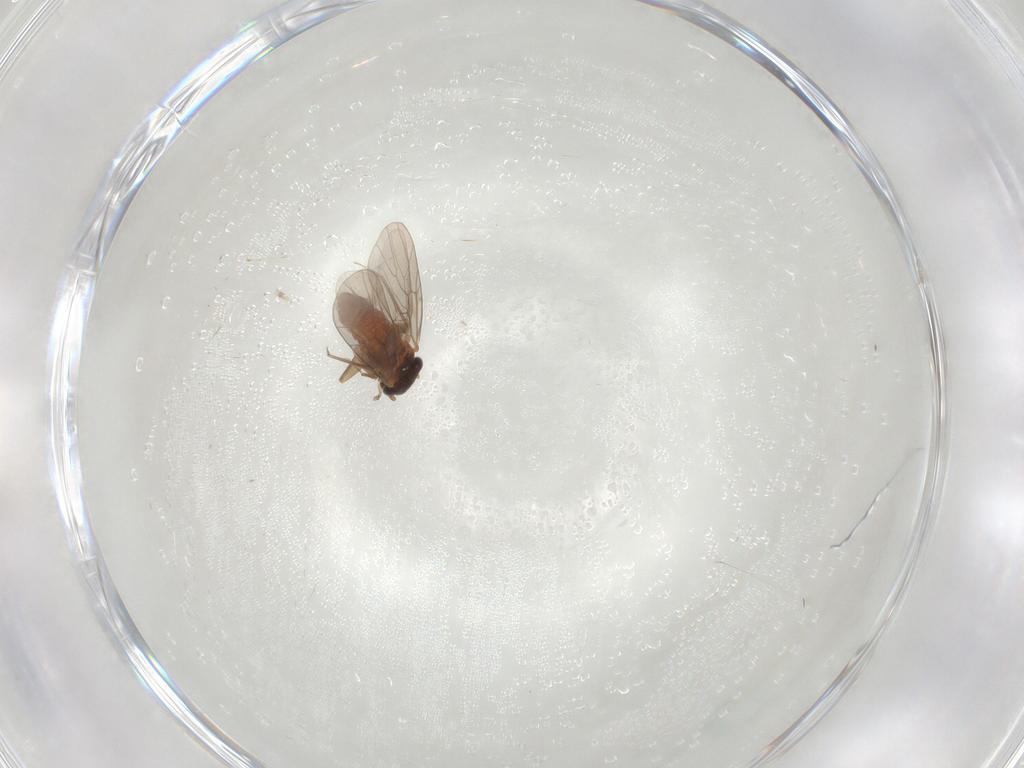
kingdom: Animalia
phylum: Arthropoda
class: Insecta
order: Psocodea
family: Lepidopsocidae
